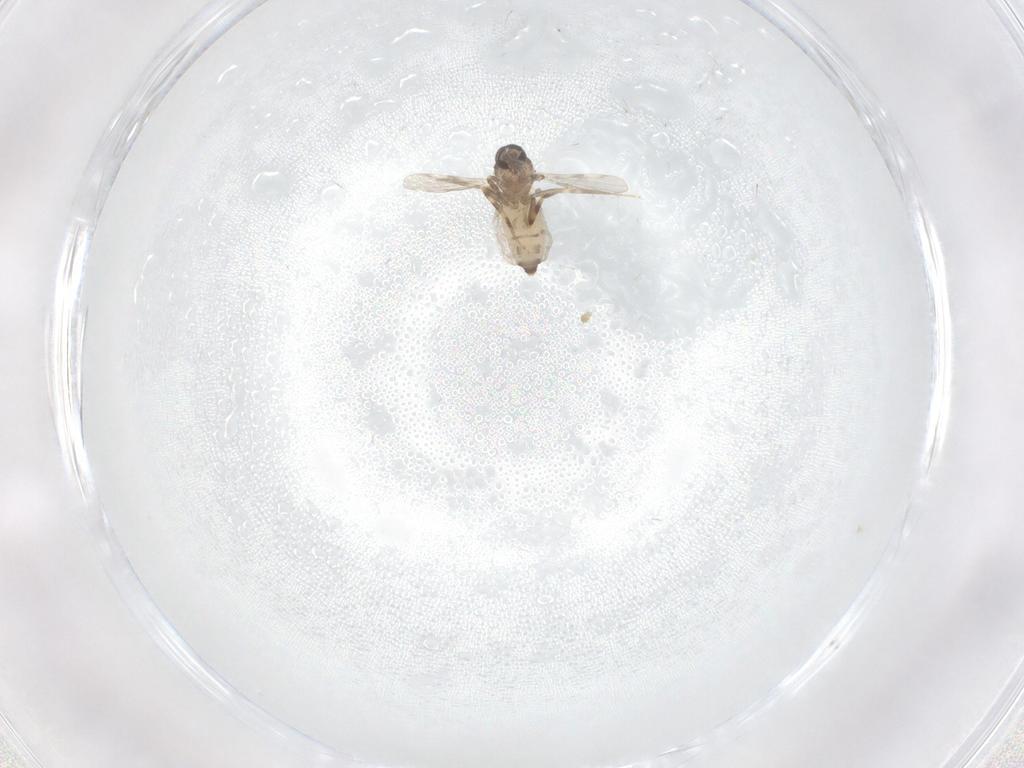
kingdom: Animalia
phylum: Arthropoda
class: Insecta
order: Diptera
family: Ceratopogonidae
